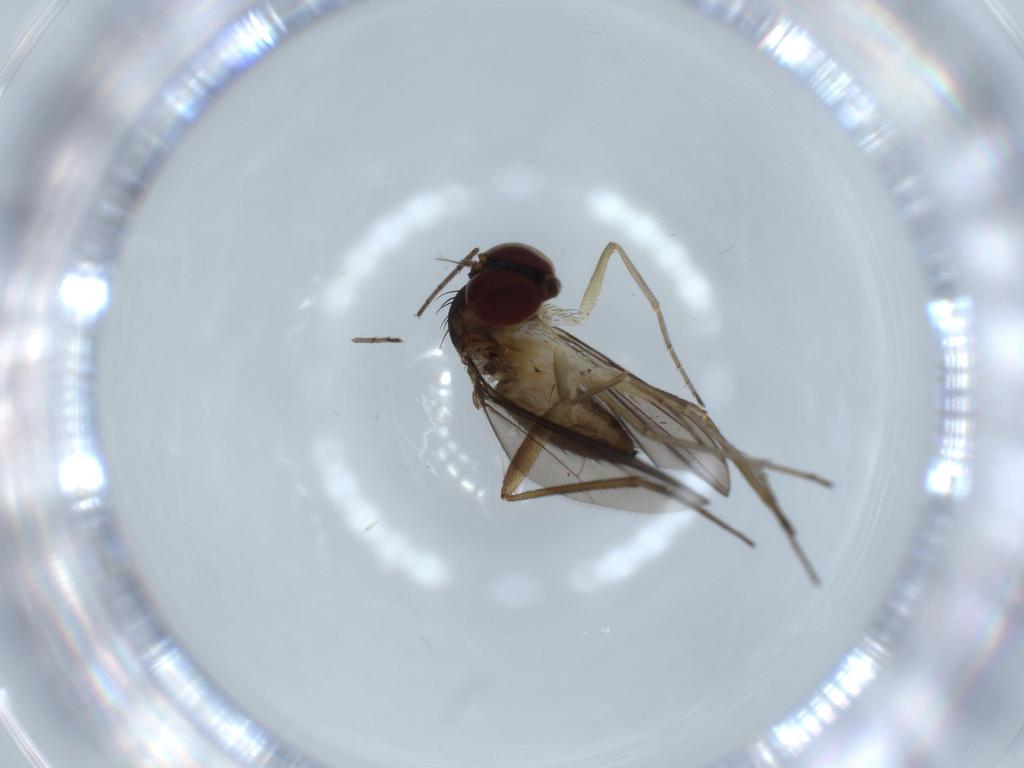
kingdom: Animalia
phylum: Arthropoda
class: Insecta
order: Diptera
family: Dolichopodidae
